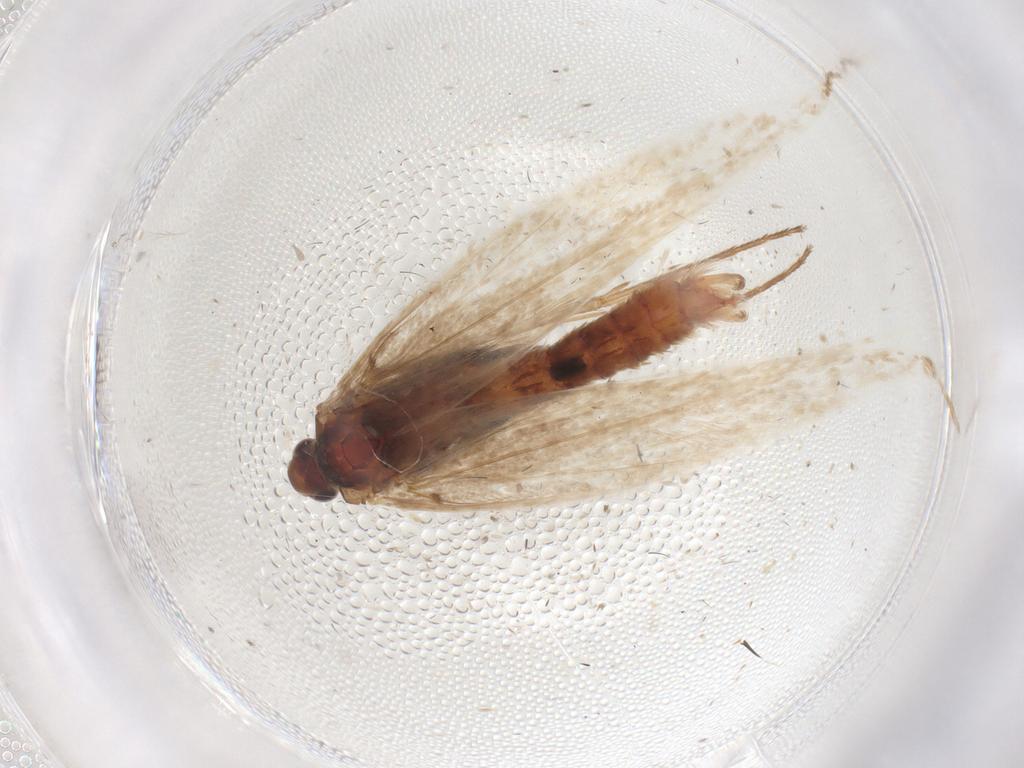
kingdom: Animalia
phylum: Arthropoda
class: Insecta
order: Lepidoptera
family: Coleophoridae
